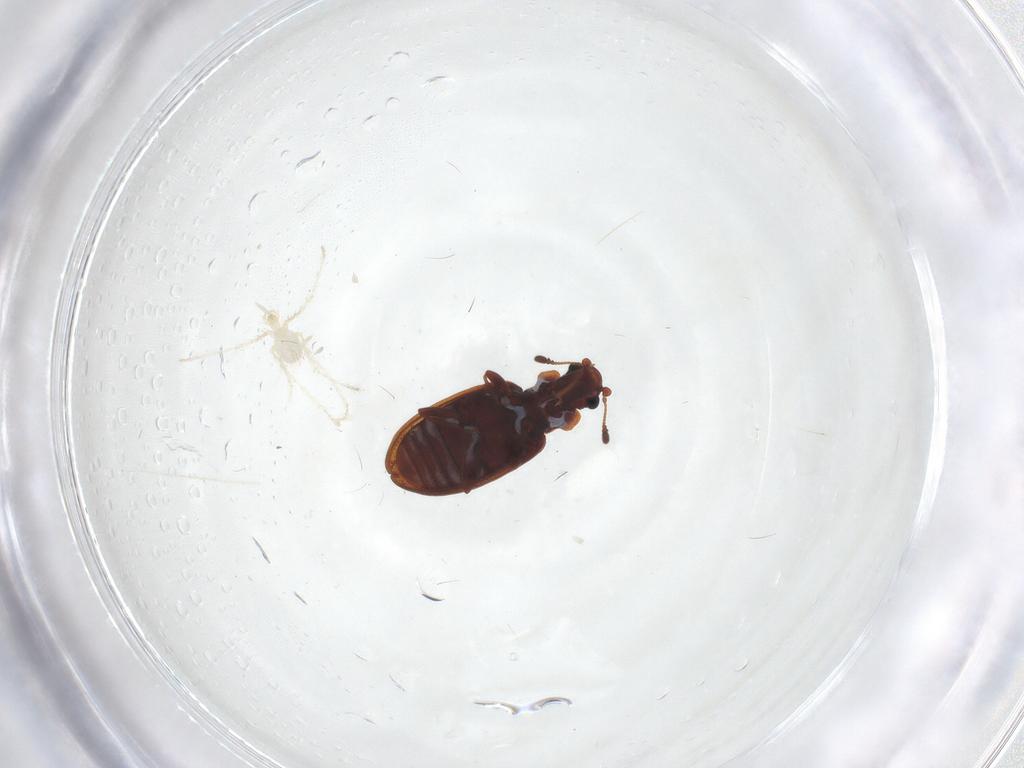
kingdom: Animalia
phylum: Arthropoda
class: Insecta
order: Coleoptera
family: Latridiidae
